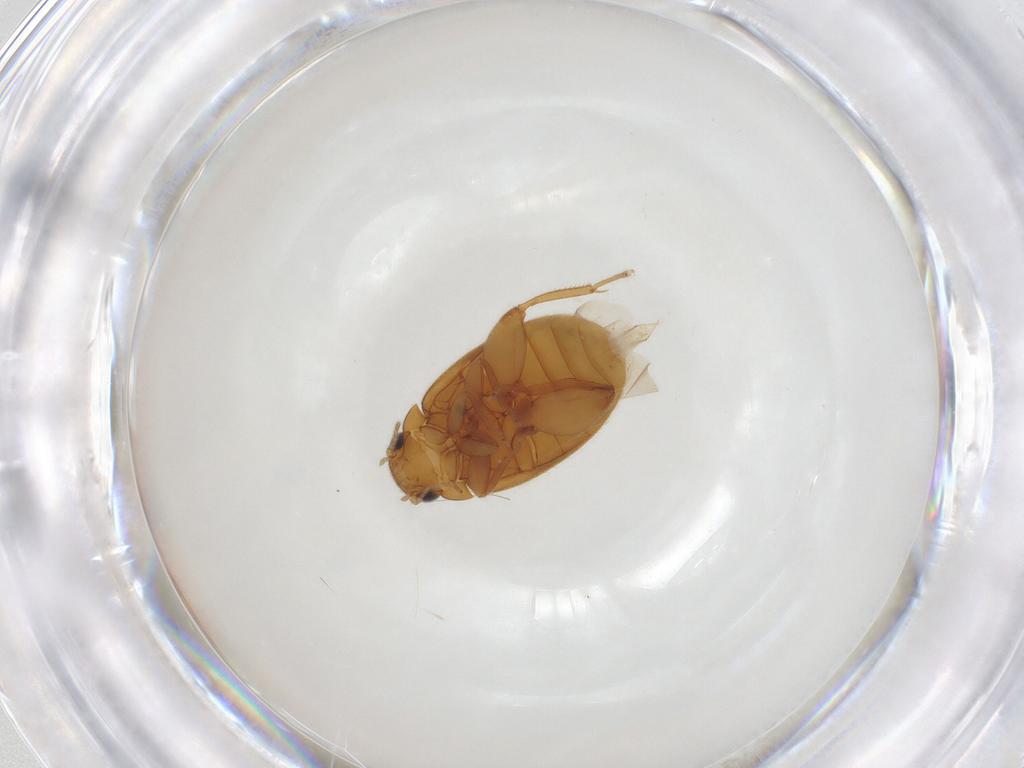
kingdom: Animalia
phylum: Arthropoda
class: Insecta
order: Coleoptera
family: Scirtidae
